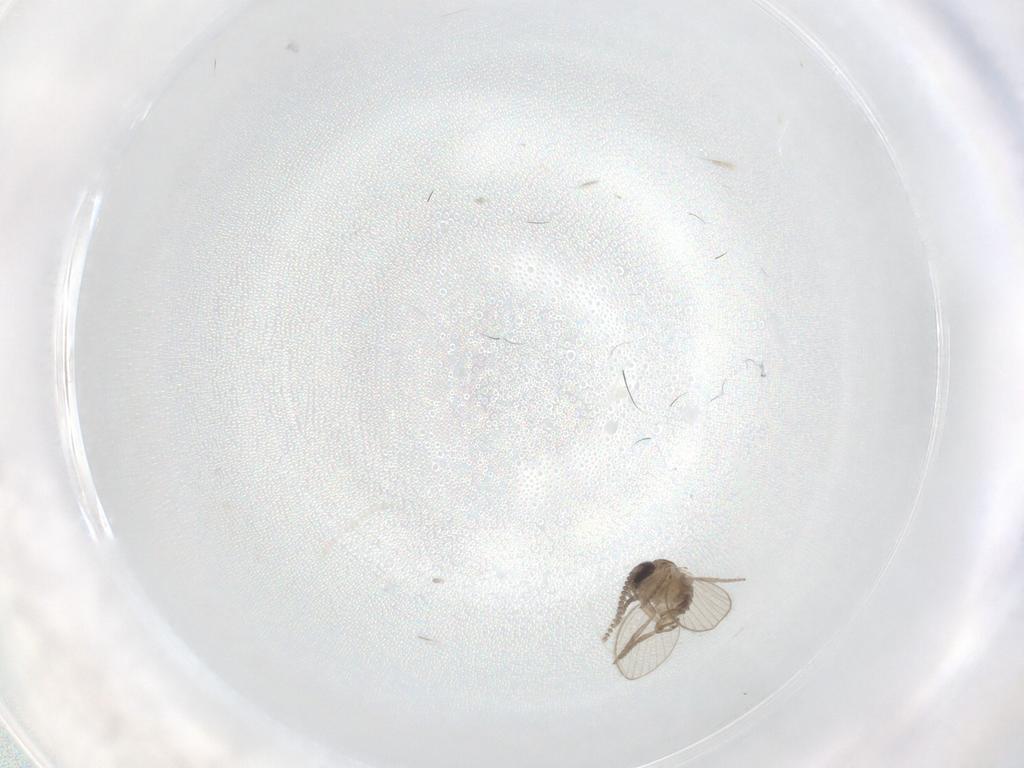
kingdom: Animalia
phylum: Arthropoda
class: Insecta
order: Diptera
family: Psychodidae
